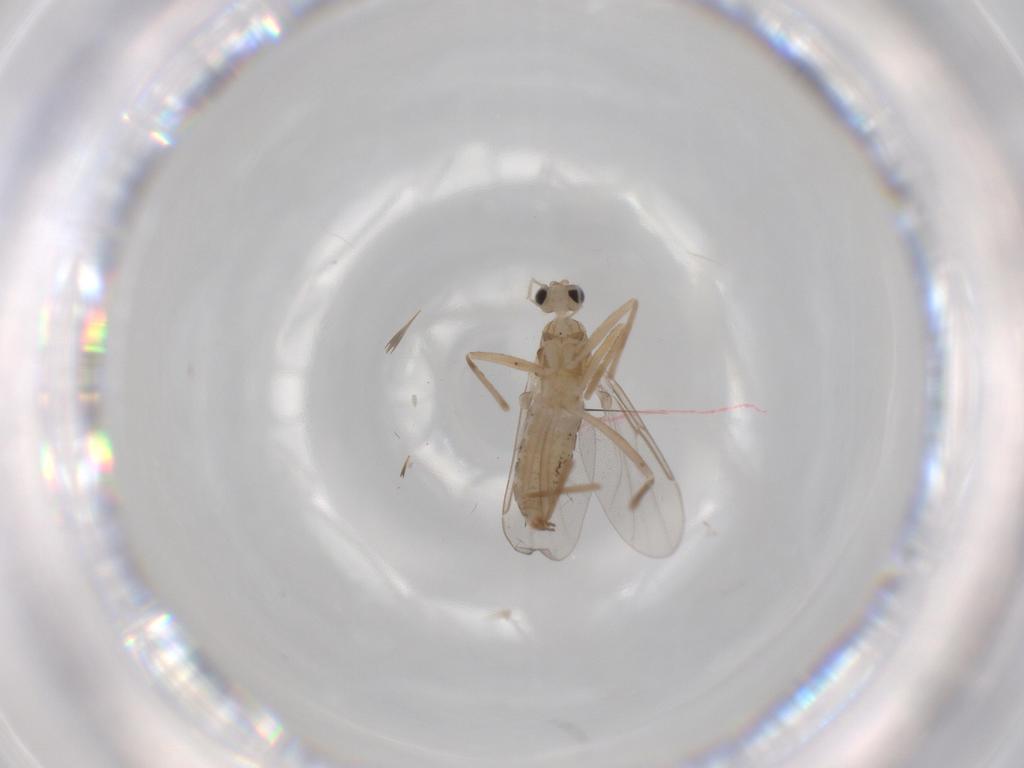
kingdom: Animalia
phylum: Arthropoda
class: Insecta
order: Diptera
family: Cecidomyiidae
